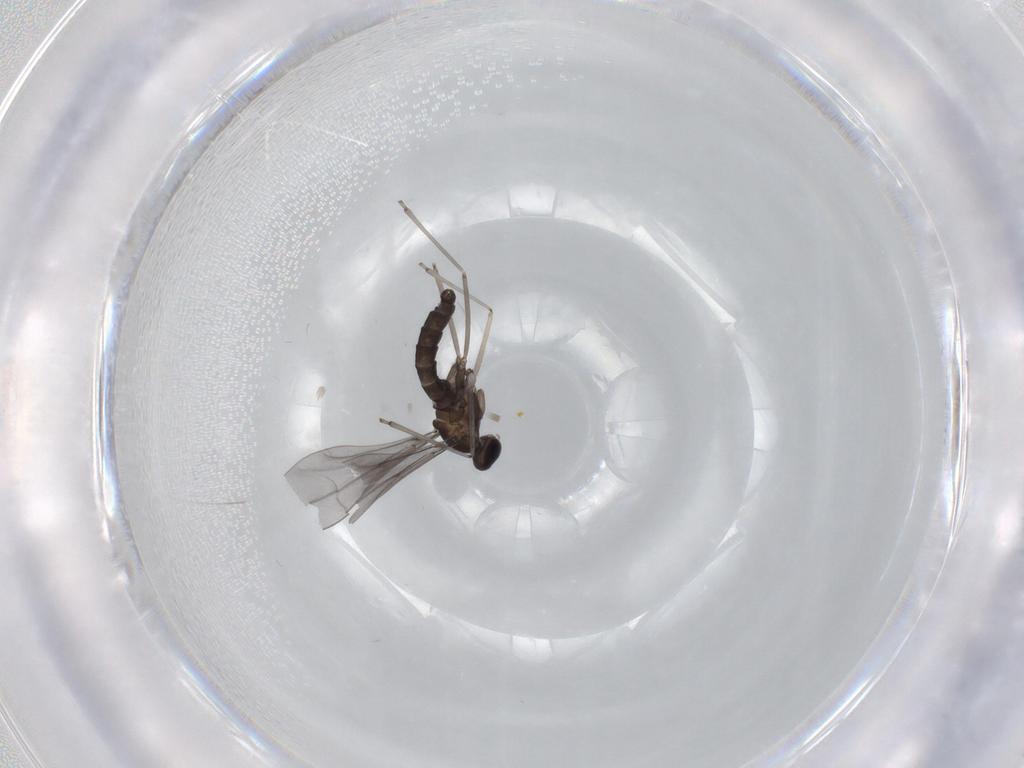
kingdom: Animalia
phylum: Arthropoda
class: Insecta
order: Diptera
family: Cecidomyiidae
